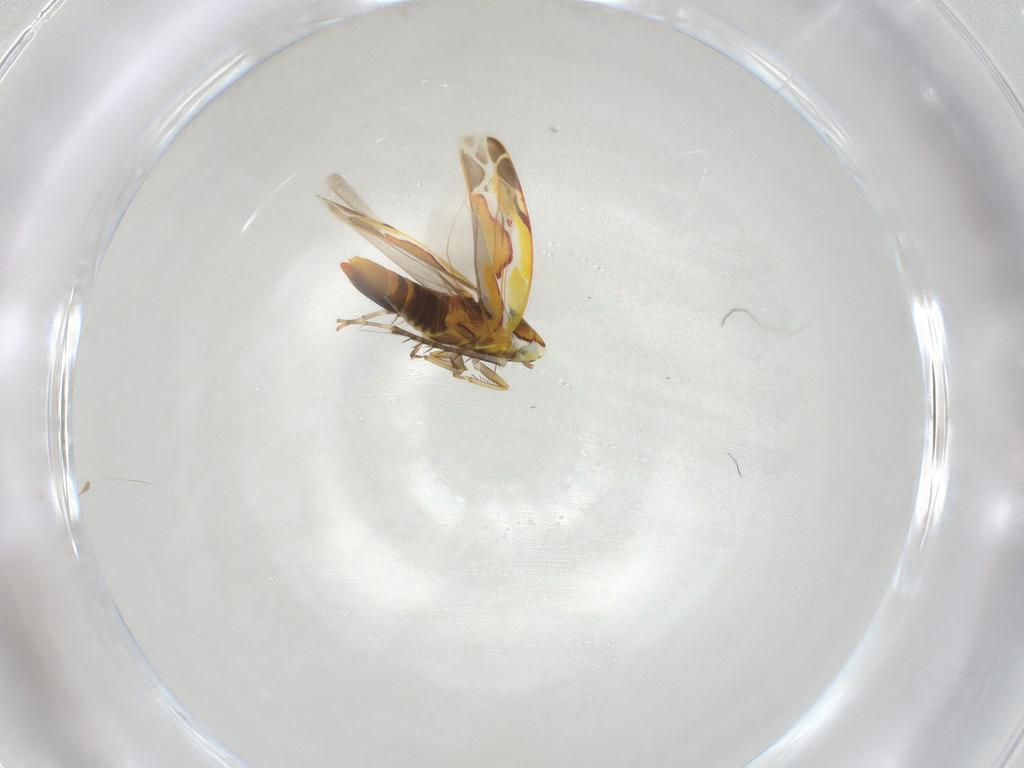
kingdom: Animalia
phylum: Arthropoda
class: Insecta
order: Hemiptera
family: Cicadellidae
